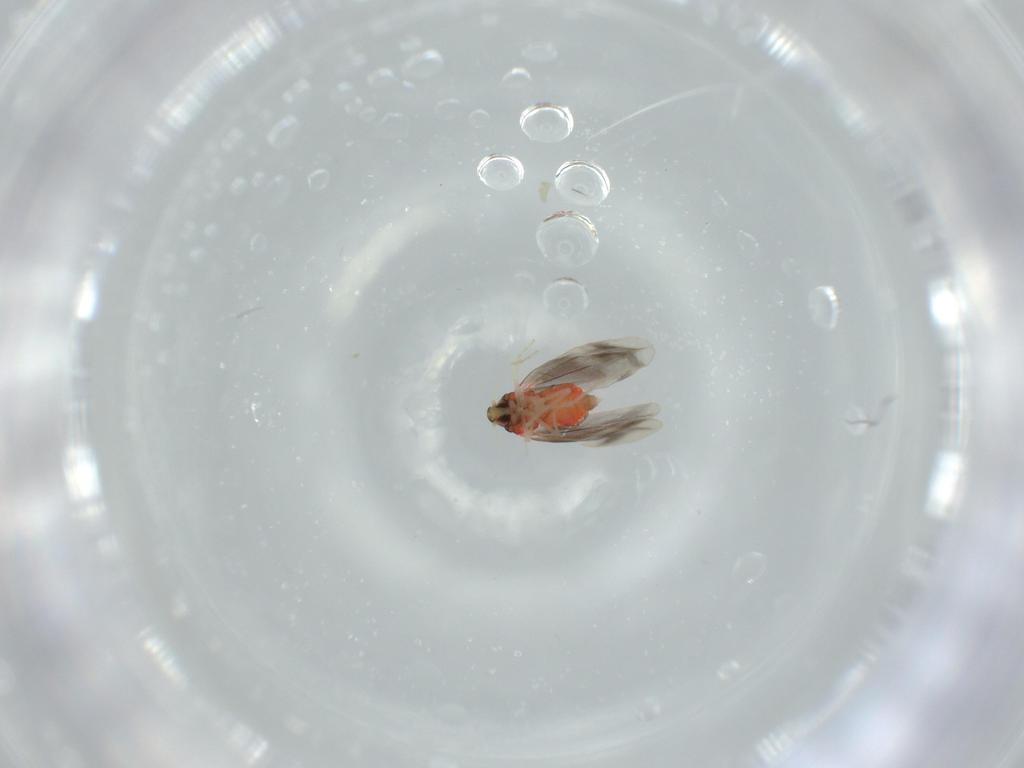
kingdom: Animalia
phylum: Arthropoda
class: Insecta
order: Hemiptera
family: Aleyrodidae
